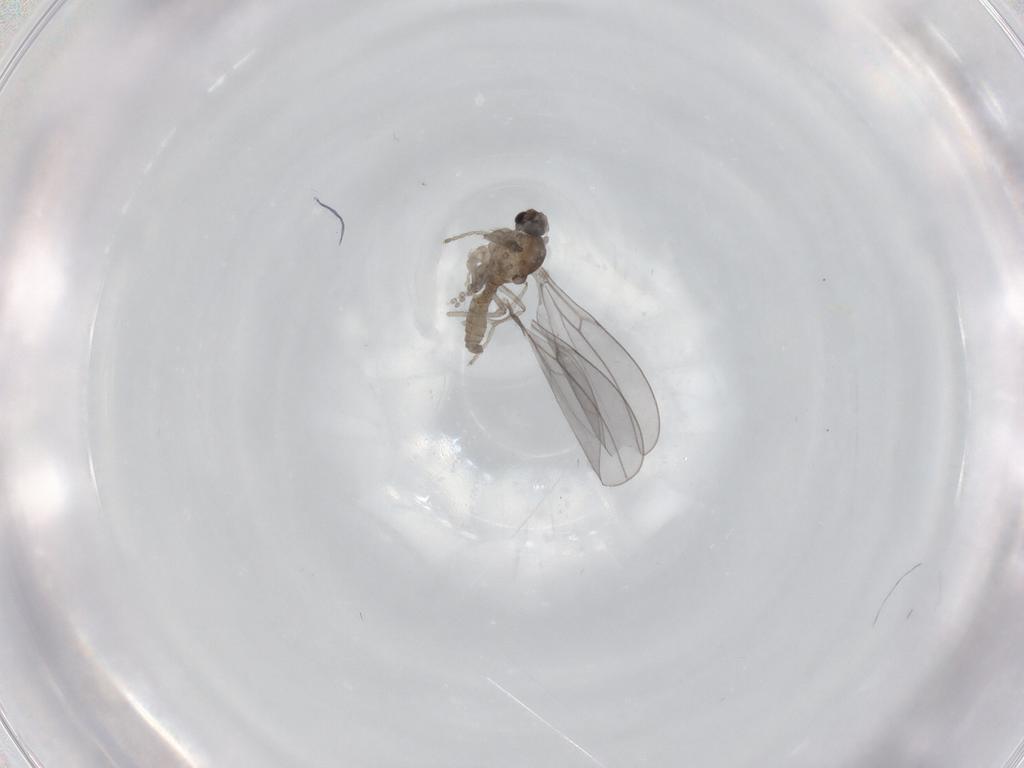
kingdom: Animalia
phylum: Arthropoda
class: Insecta
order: Diptera
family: Cecidomyiidae
